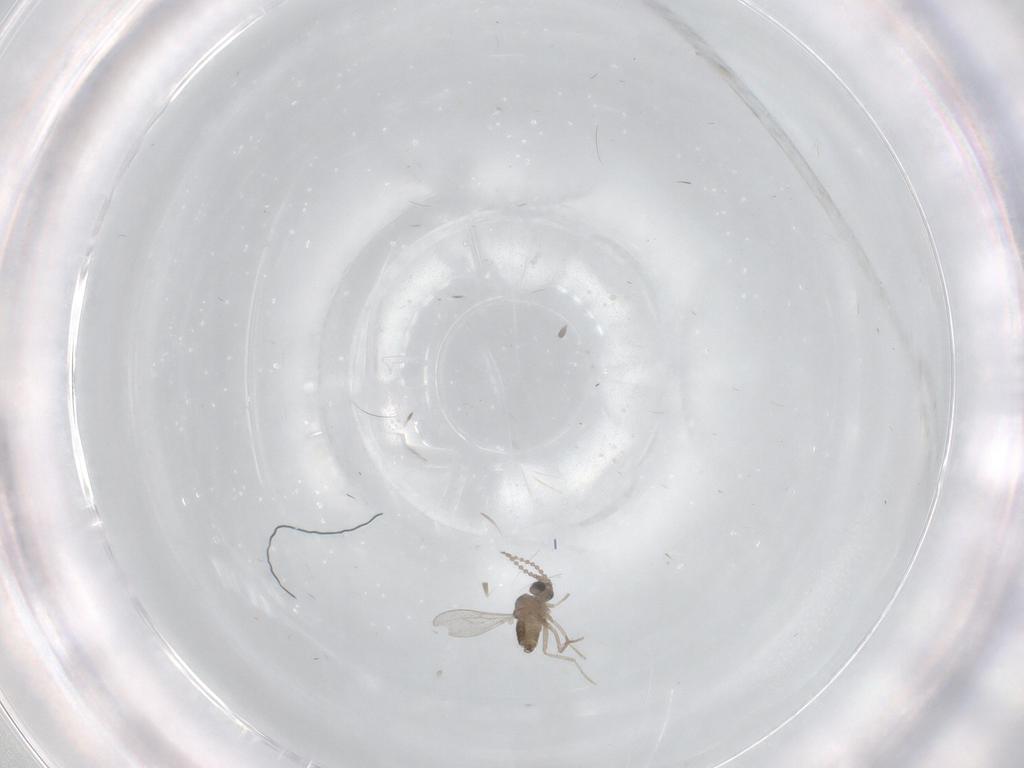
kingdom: Animalia
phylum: Arthropoda
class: Insecta
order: Diptera
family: Cecidomyiidae
